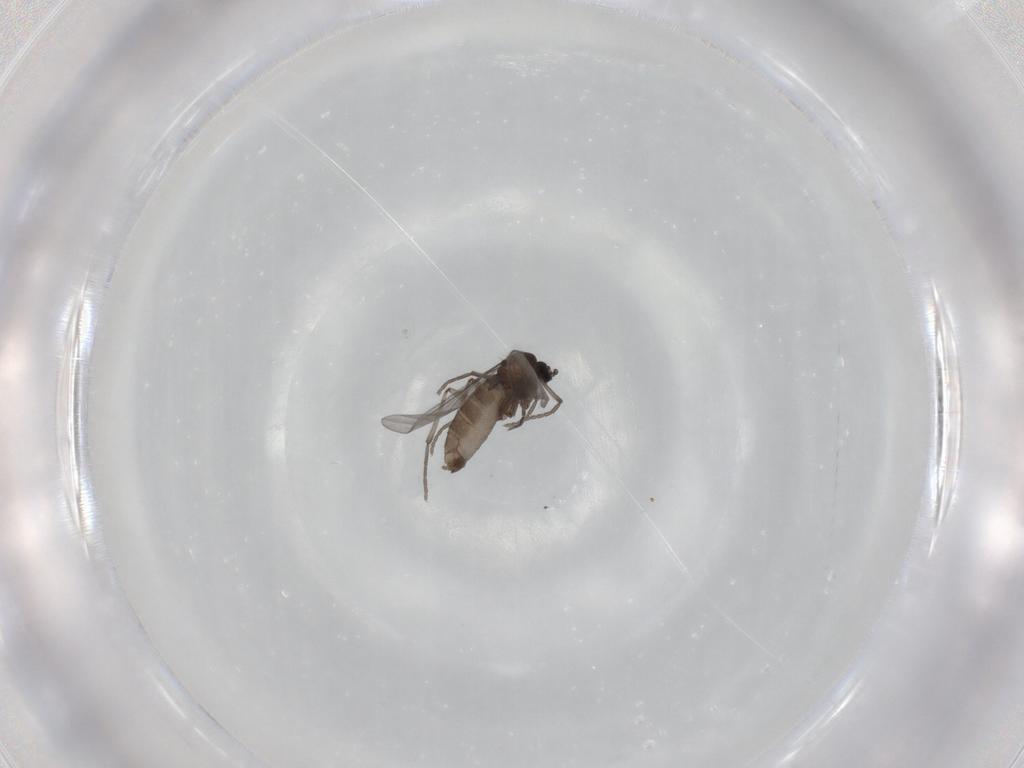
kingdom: Animalia
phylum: Arthropoda
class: Insecta
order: Diptera
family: Sciaridae
